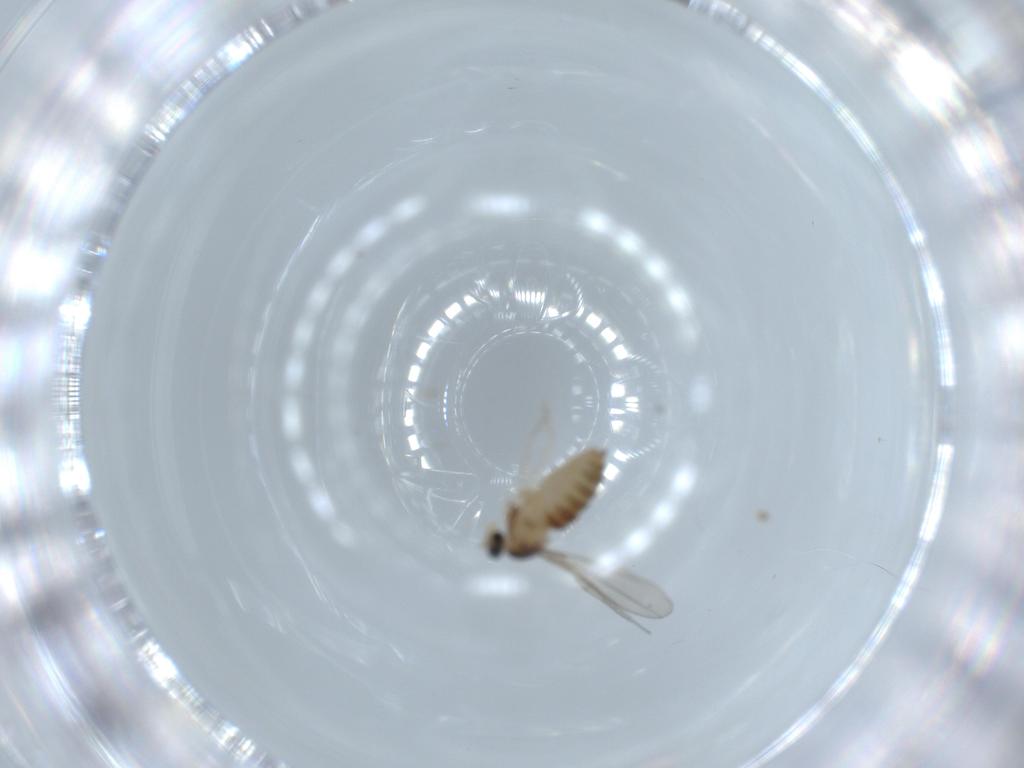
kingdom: Animalia
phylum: Arthropoda
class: Insecta
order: Diptera
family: Cecidomyiidae
